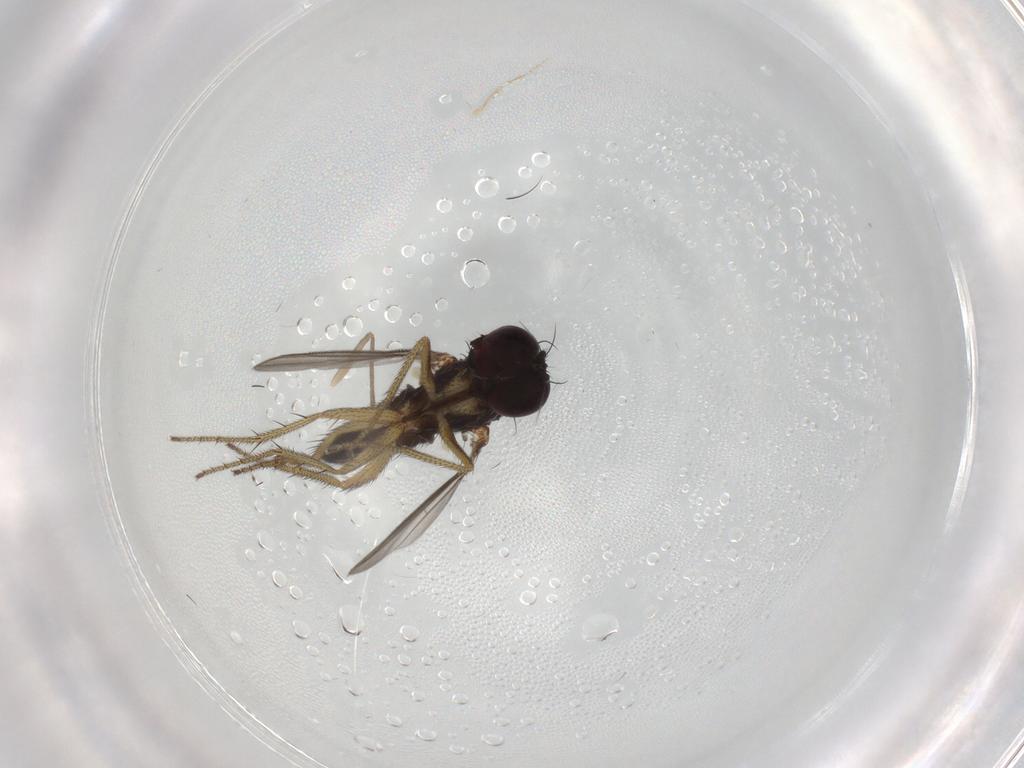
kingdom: Animalia
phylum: Arthropoda
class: Insecta
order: Diptera
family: Dolichopodidae
